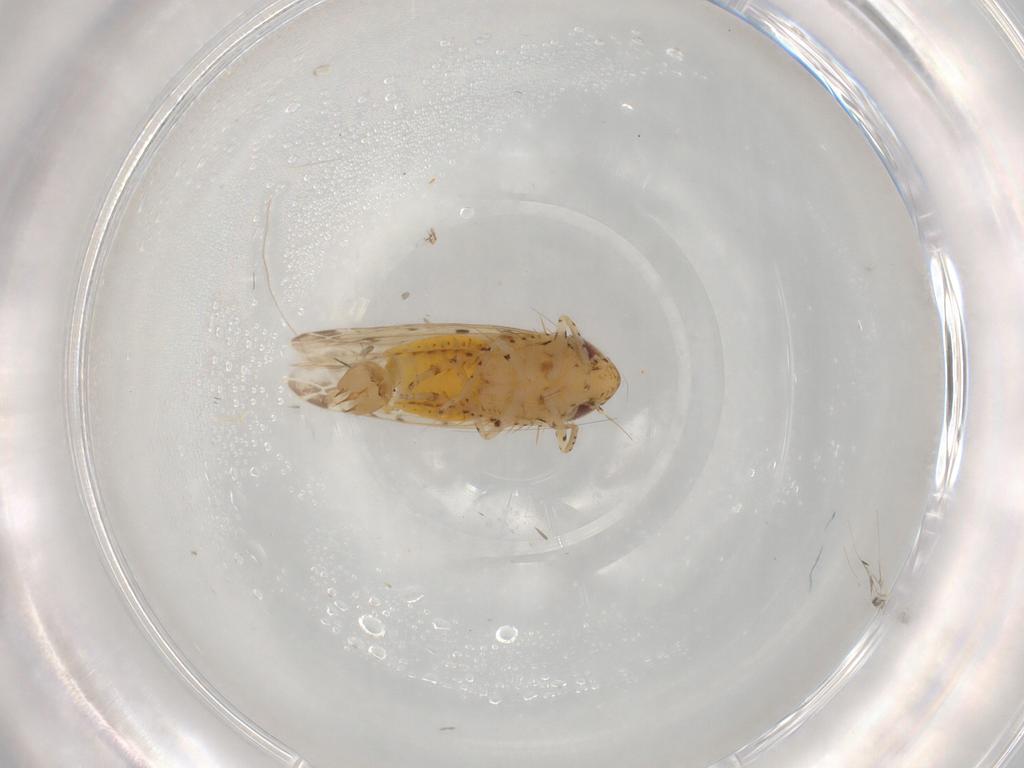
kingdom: Animalia
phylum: Arthropoda
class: Insecta
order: Hemiptera
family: Cicadellidae
